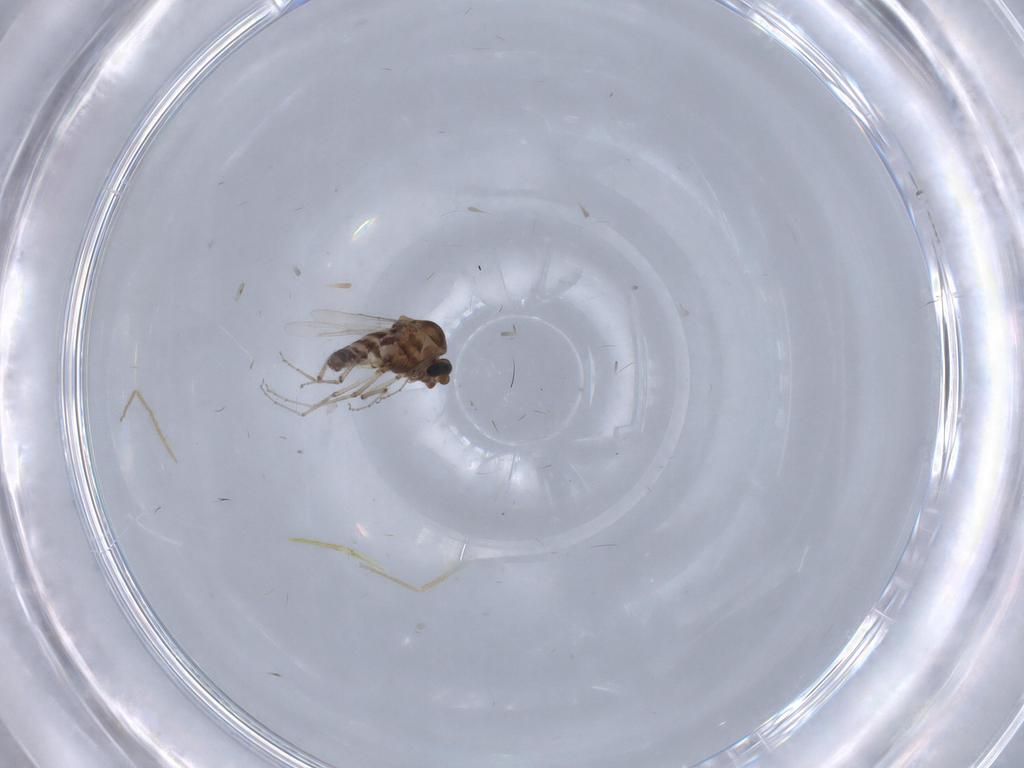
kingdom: Animalia
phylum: Arthropoda
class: Insecta
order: Diptera
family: Ceratopogonidae
